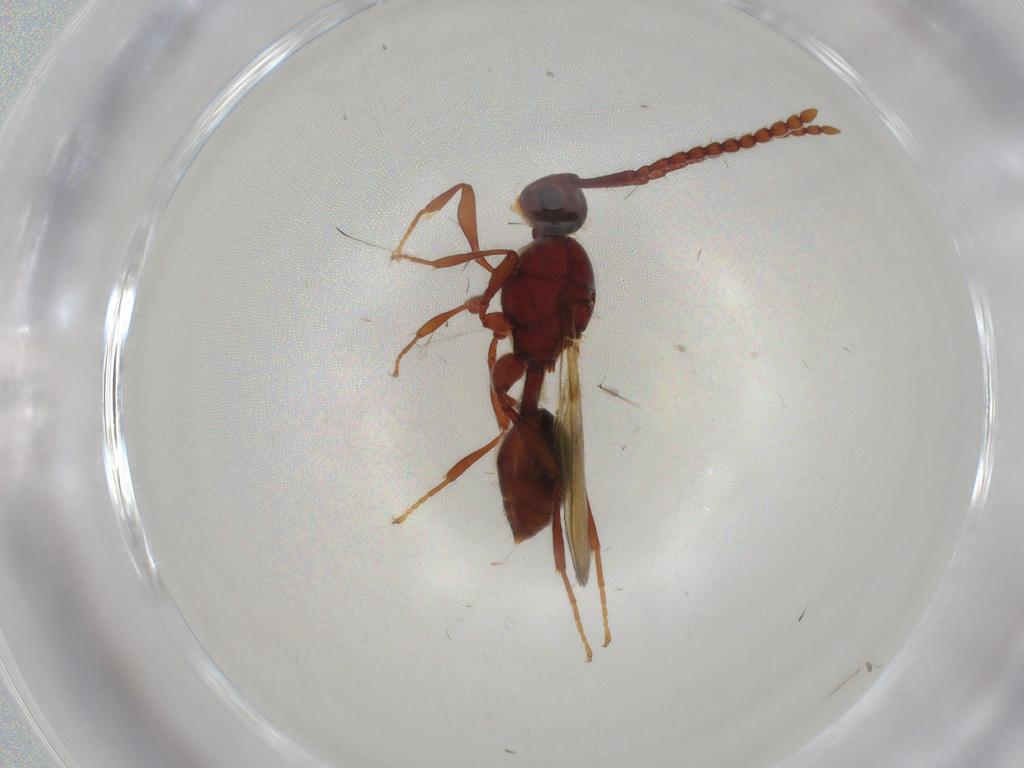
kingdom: Animalia
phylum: Arthropoda
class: Insecta
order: Hymenoptera
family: Diapriidae
